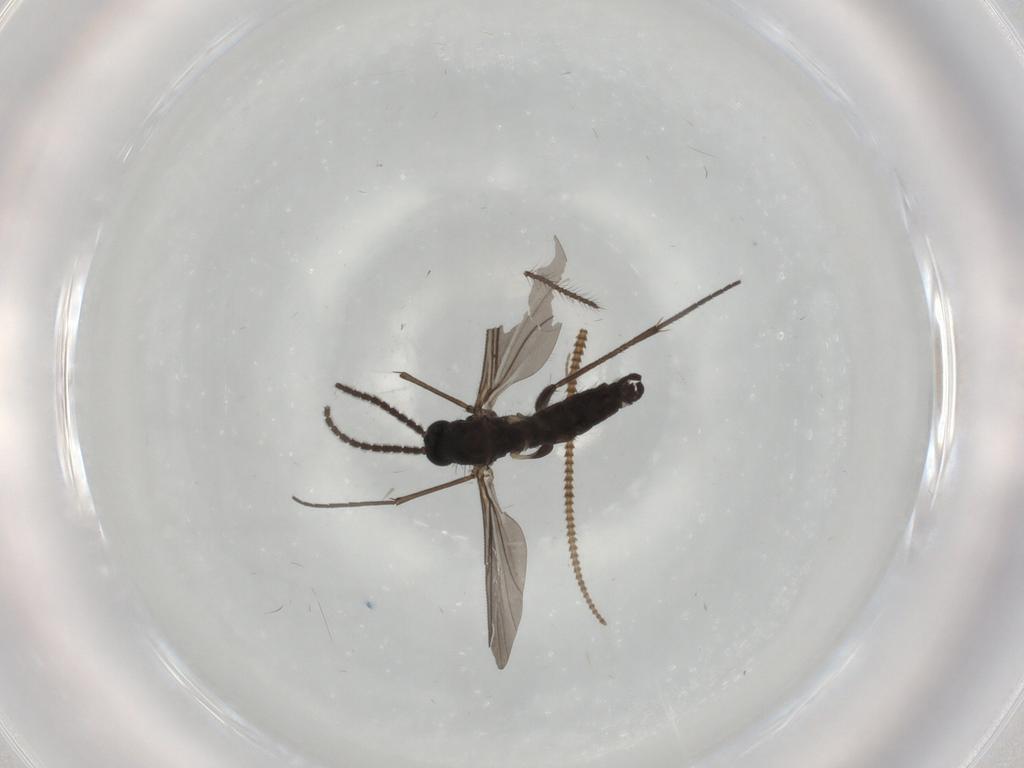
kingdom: Animalia
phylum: Arthropoda
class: Insecta
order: Diptera
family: Sciaridae
